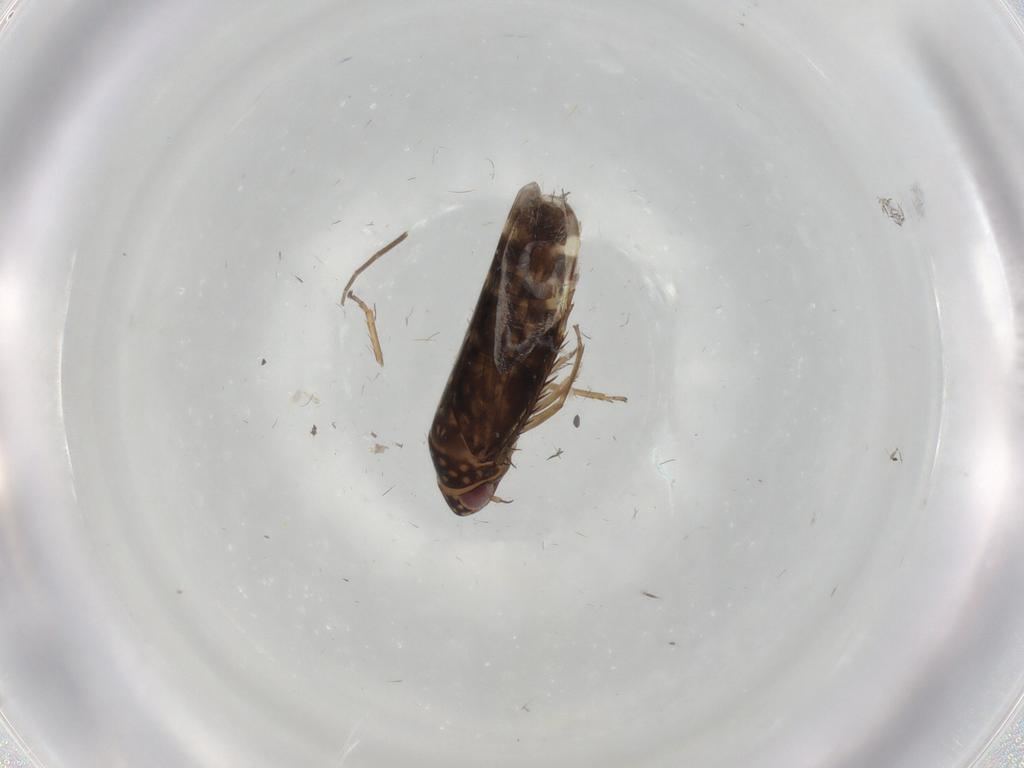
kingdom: Animalia
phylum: Arthropoda
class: Insecta
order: Hemiptera
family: Cicadellidae
